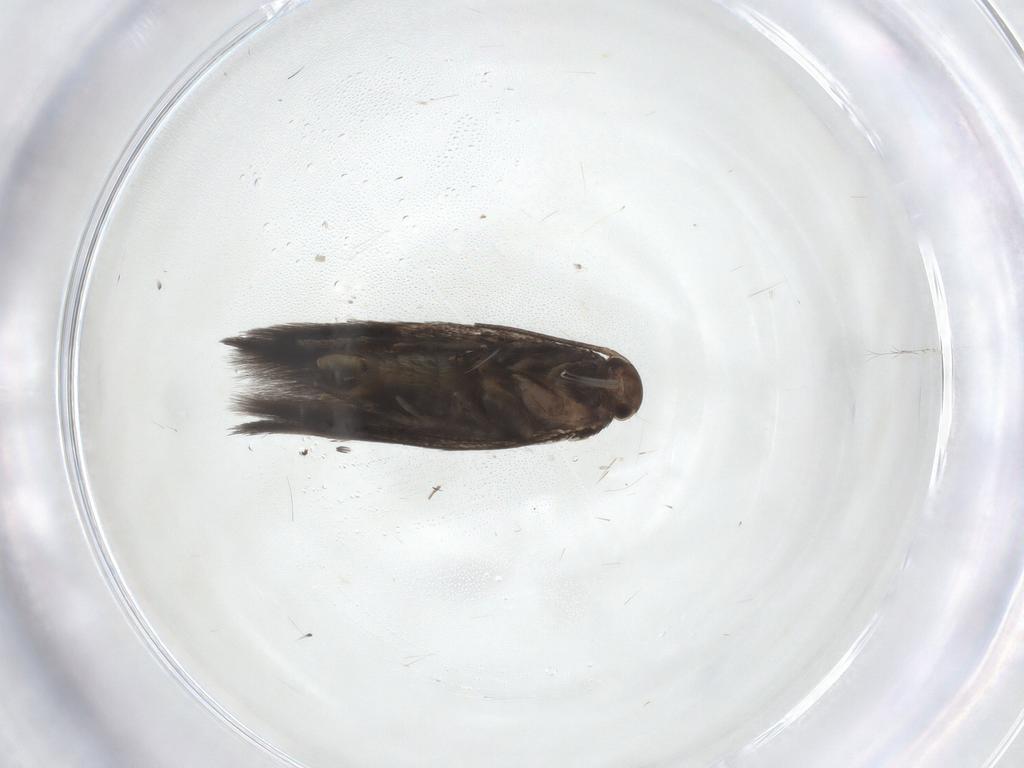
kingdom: Animalia
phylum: Arthropoda
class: Insecta
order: Lepidoptera
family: Elachistidae
